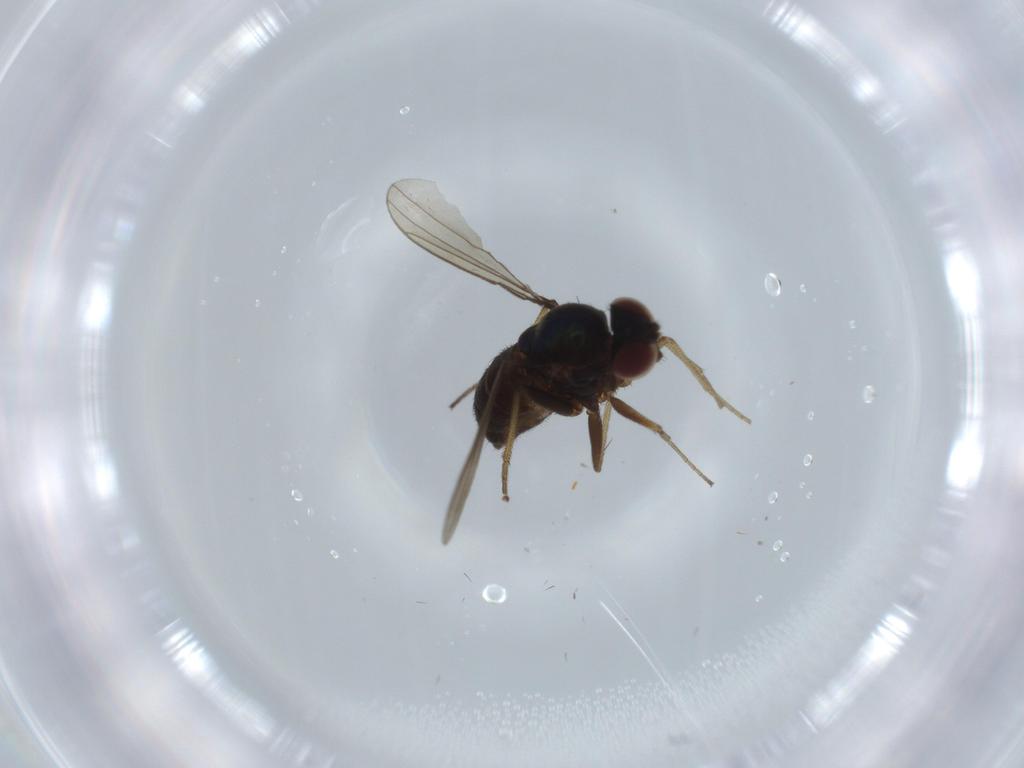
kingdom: Animalia
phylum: Arthropoda
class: Insecta
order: Diptera
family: Dolichopodidae
